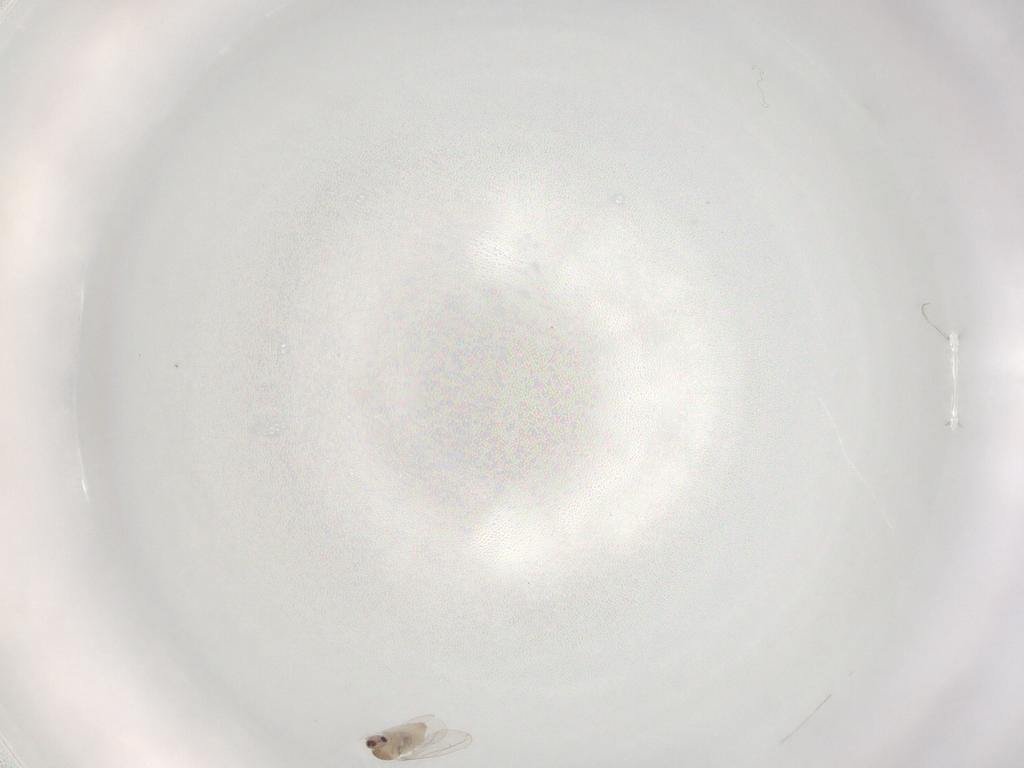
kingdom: Animalia
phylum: Arthropoda
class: Insecta
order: Diptera
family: Cecidomyiidae
